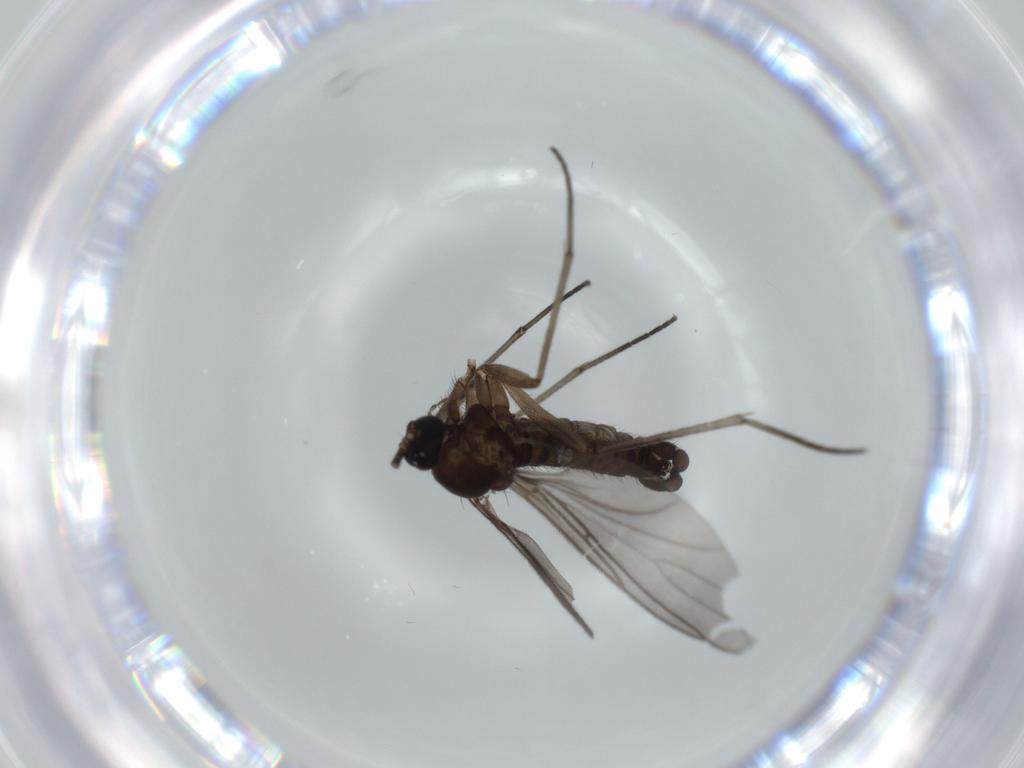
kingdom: Animalia
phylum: Arthropoda
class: Insecta
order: Diptera
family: Sciaridae
